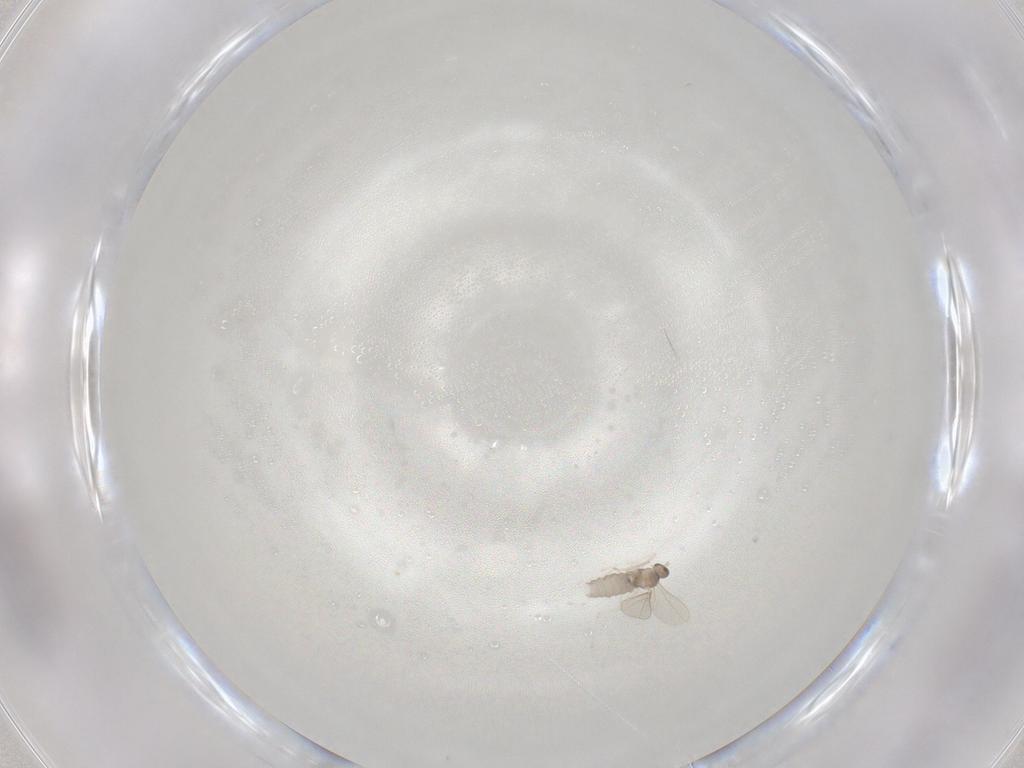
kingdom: Animalia
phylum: Arthropoda
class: Insecta
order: Diptera
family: Cecidomyiidae
